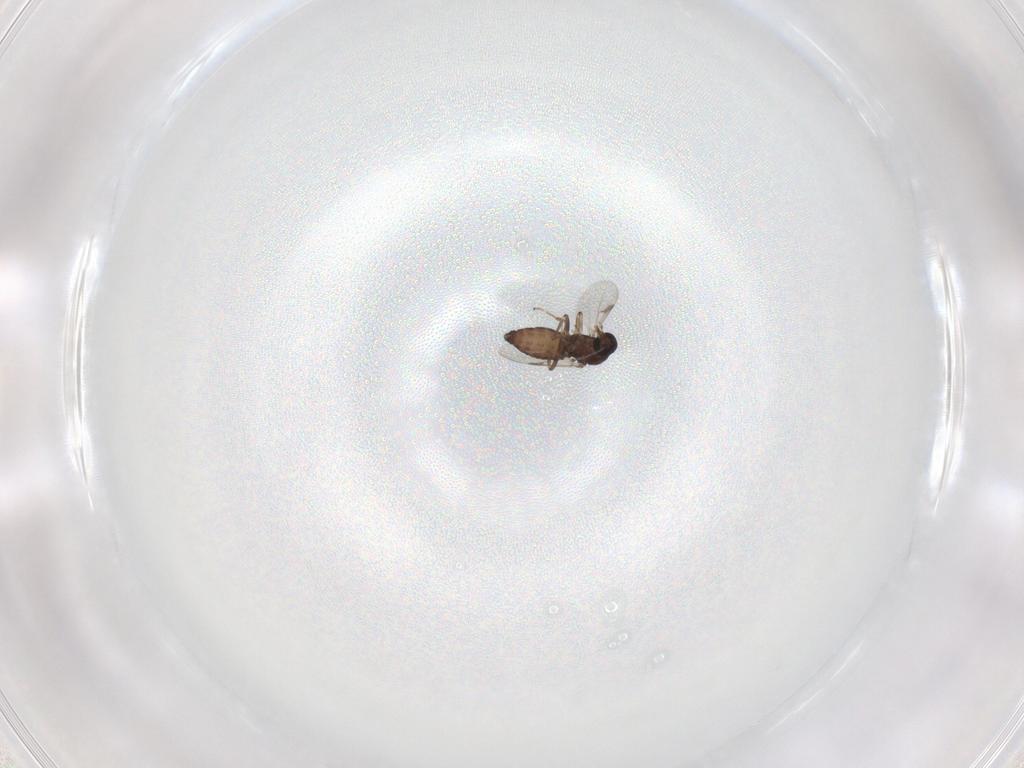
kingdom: Animalia
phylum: Arthropoda
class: Insecta
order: Diptera
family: Ceratopogonidae
